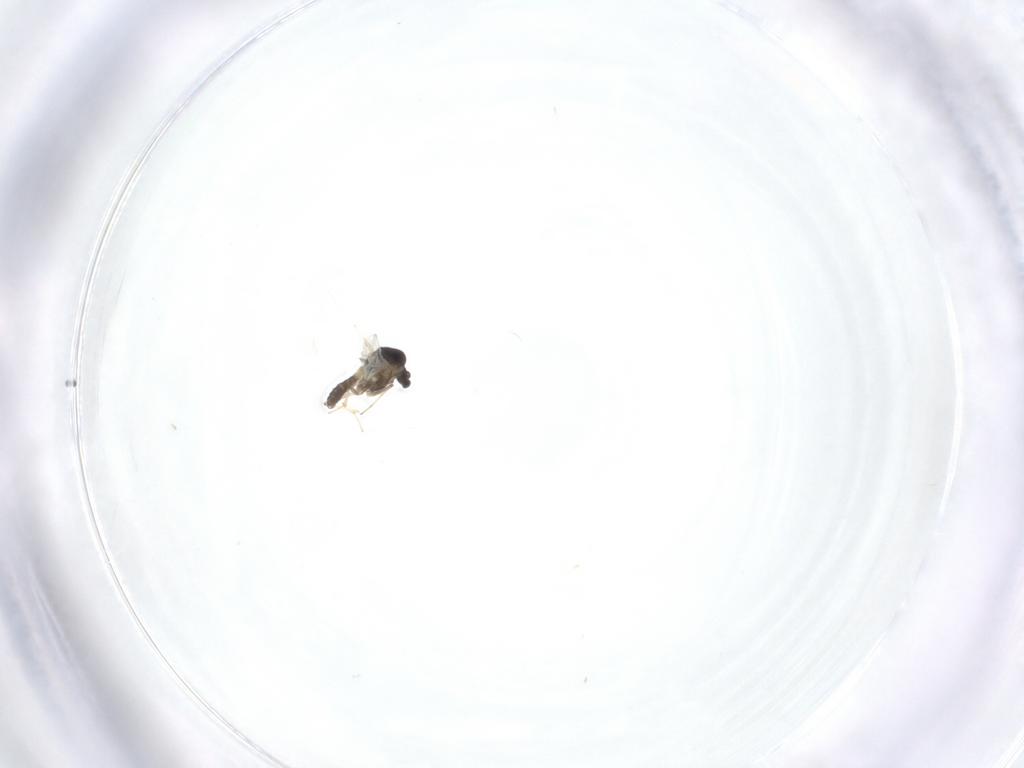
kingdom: Animalia
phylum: Arthropoda
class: Insecta
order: Diptera
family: Chironomidae
